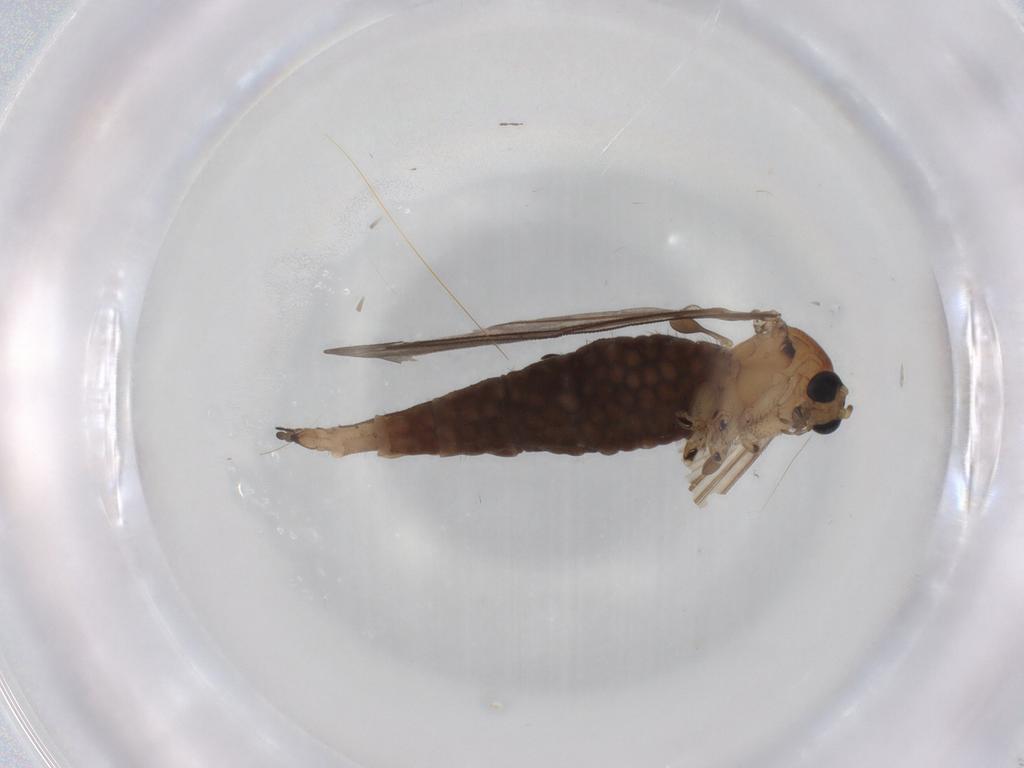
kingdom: Animalia
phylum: Arthropoda
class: Insecta
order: Diptera
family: Sciaridae
